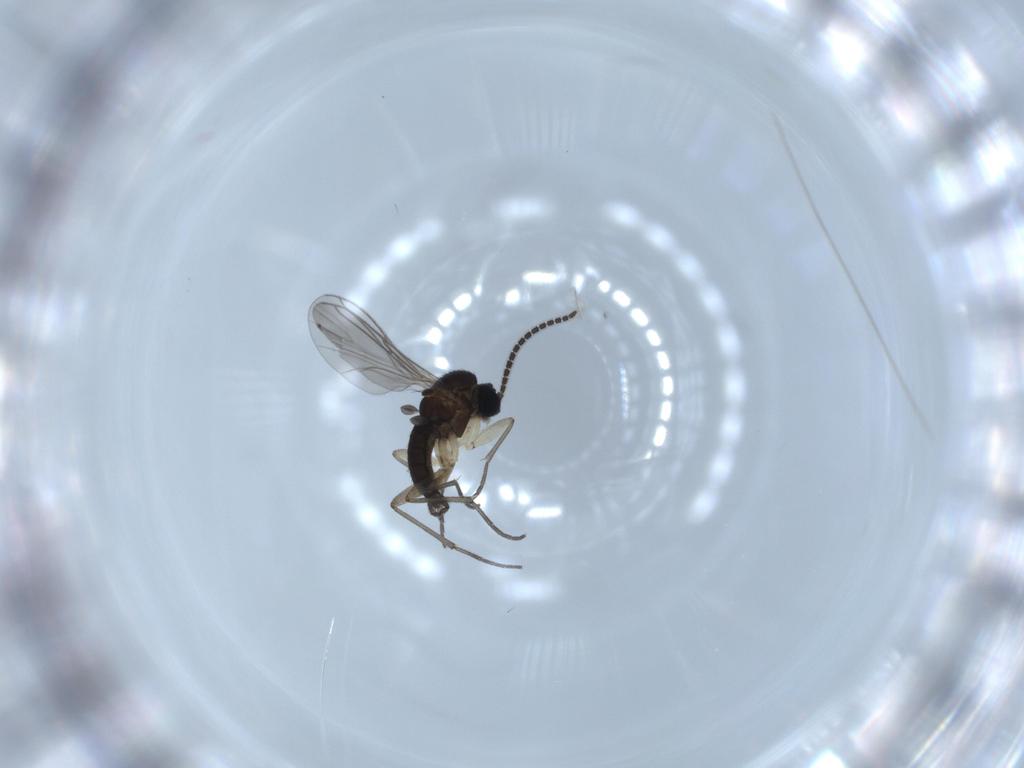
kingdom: Animalia
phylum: Arthropoda
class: Insecta
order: Diptera
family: Sciaridae
